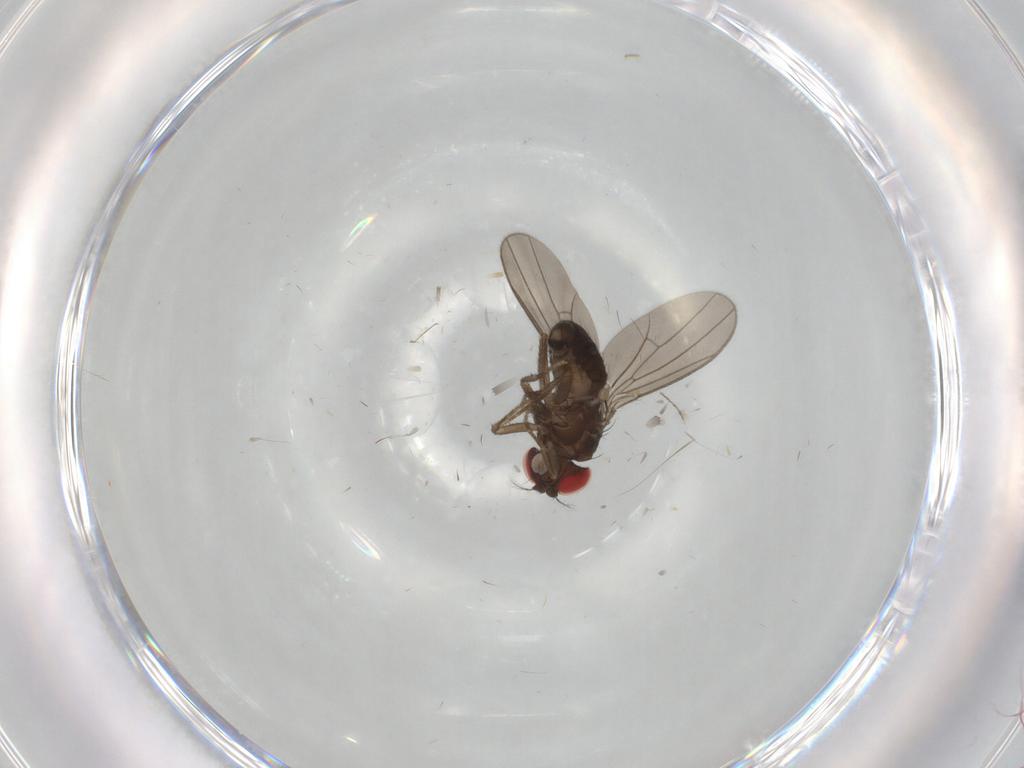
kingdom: Animalia
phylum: Arthropoda
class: Insecta
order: Diptera
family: Drosophilidae
